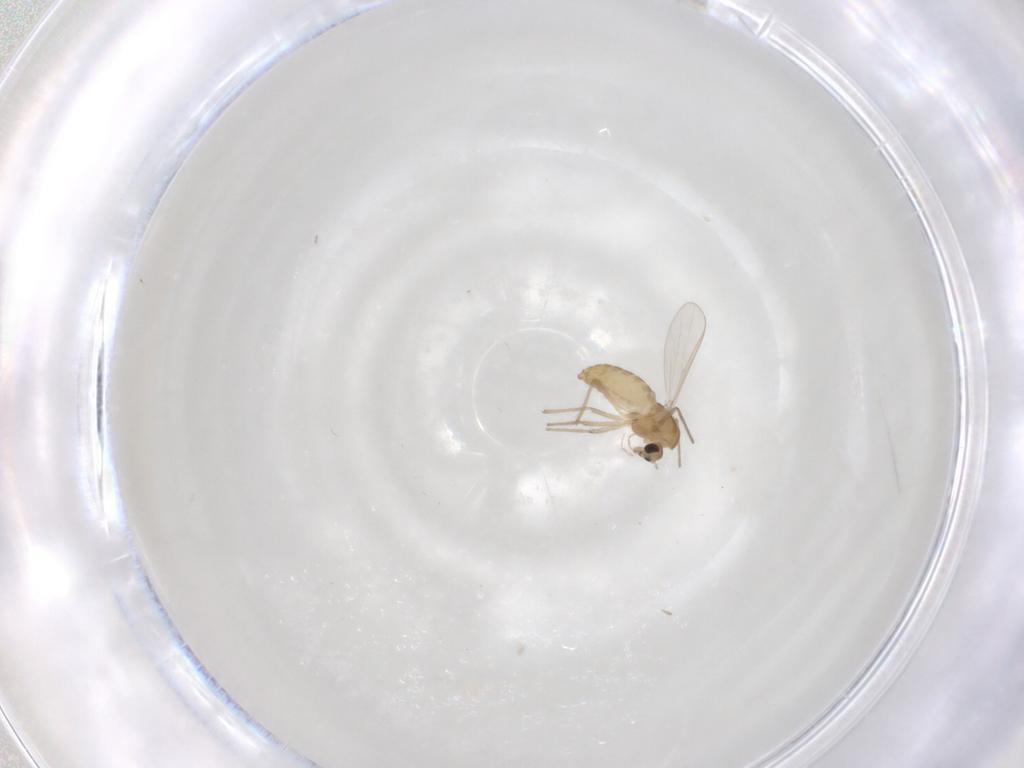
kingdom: Animalia
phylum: Arthropoda
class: Insecta
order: Diptera
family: Chironomidae
